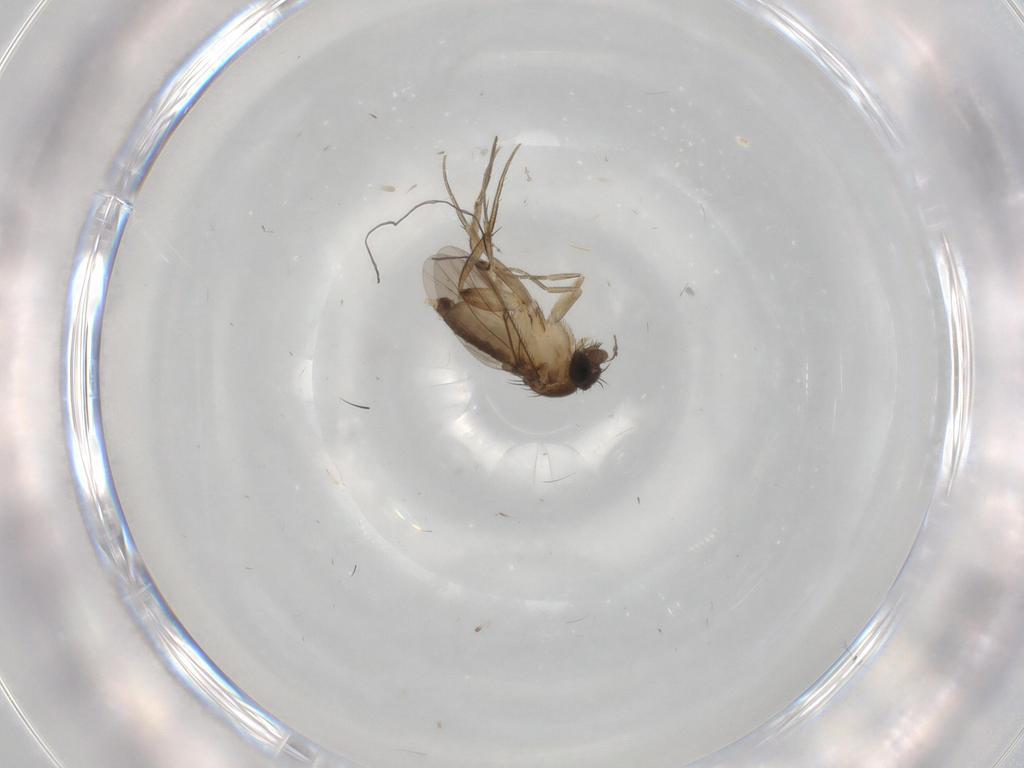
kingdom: Animalia
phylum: Arthropoda
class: Insecta
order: Diptera
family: Phoridae
